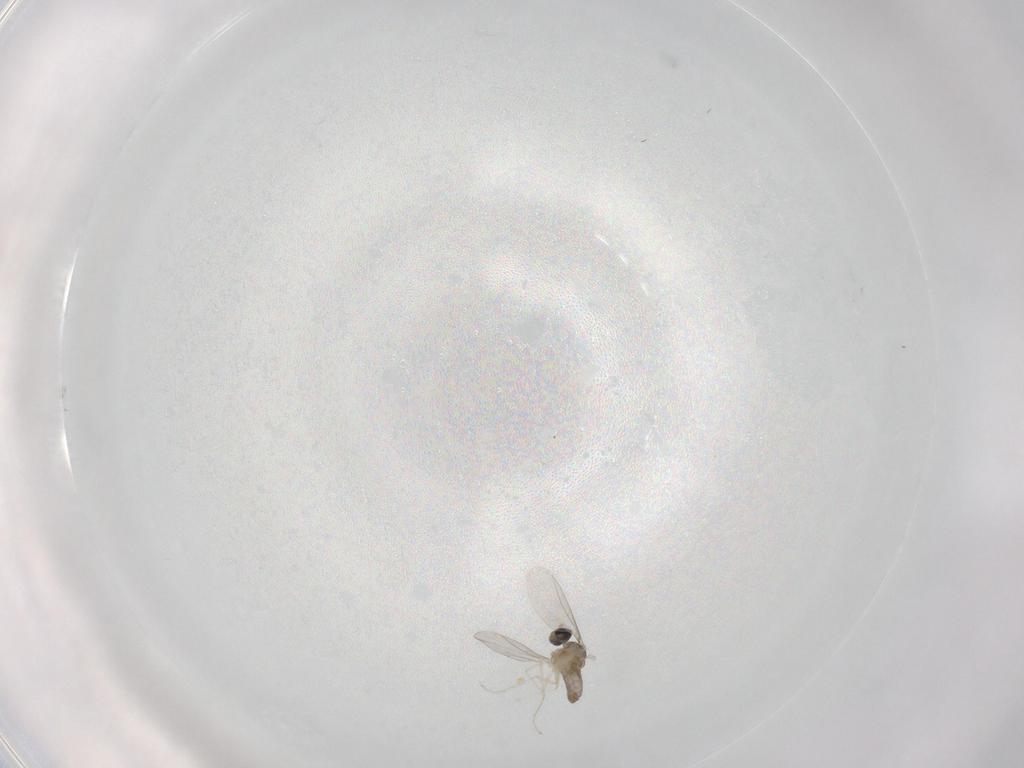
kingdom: Animalia
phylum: Arthropoda
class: Insecta
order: Diptera
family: Cecidomyiidae
